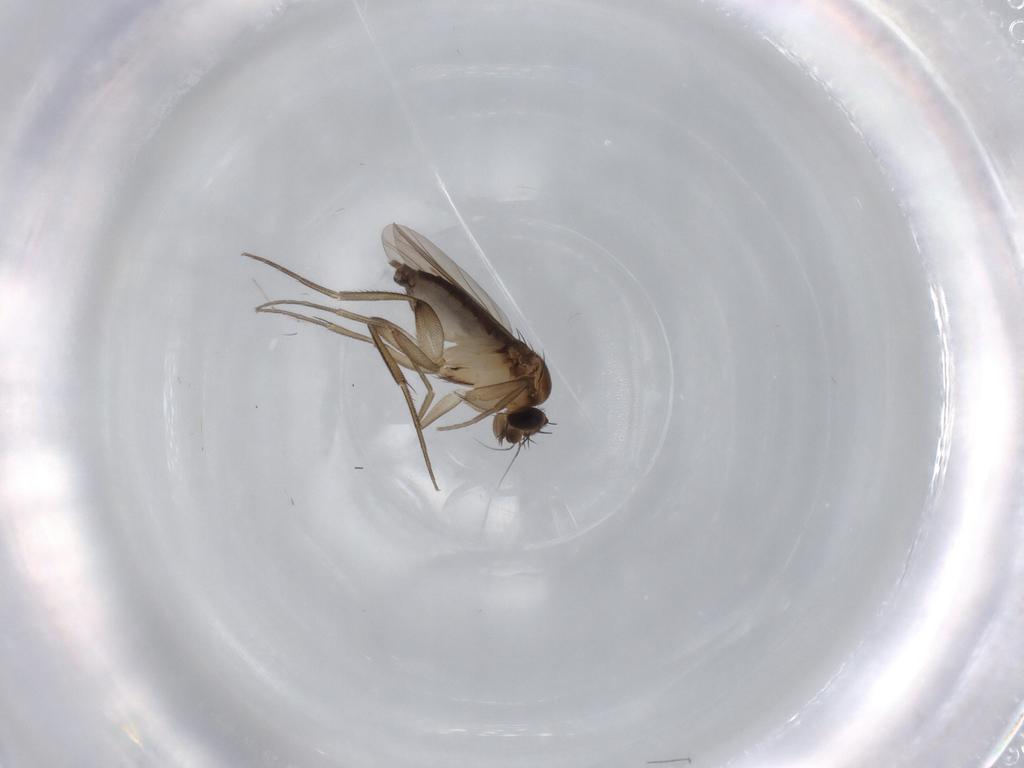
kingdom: Animalia
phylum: Arthropoda
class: Insecta
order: Diptera
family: Phoridae
